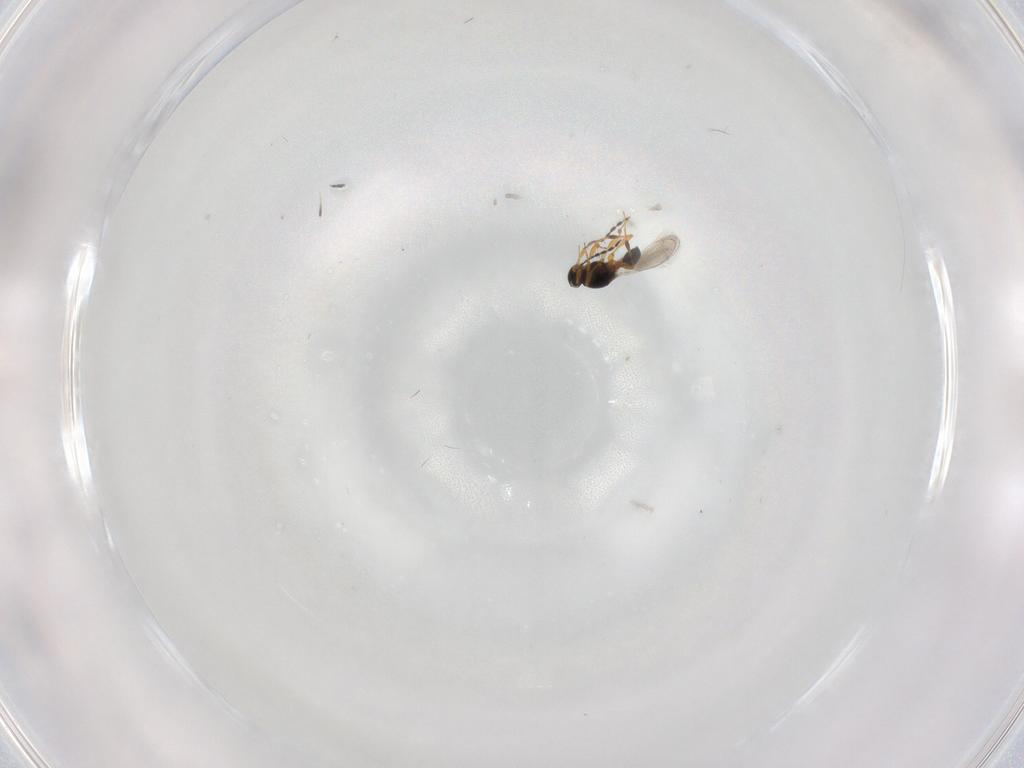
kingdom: Animalia
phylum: Arthropoda
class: Insecta
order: Hymenoptera
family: Platygastridae
